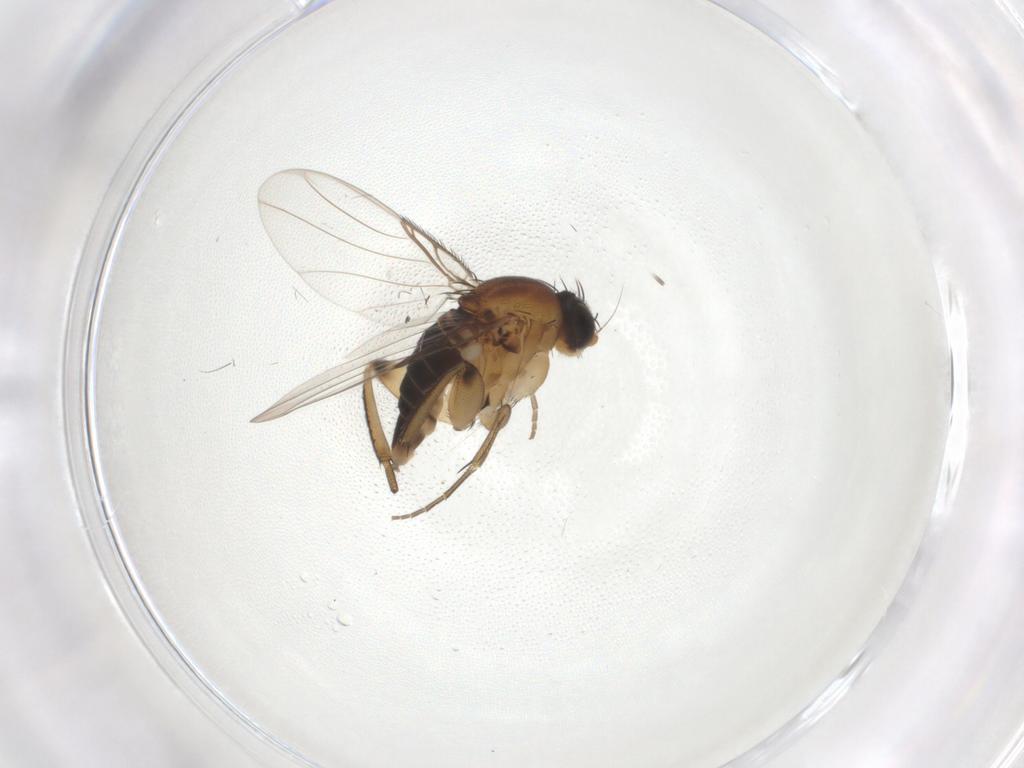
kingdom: Animalia
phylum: Arthropoda
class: Insecta
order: Diptera
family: Phoridae
